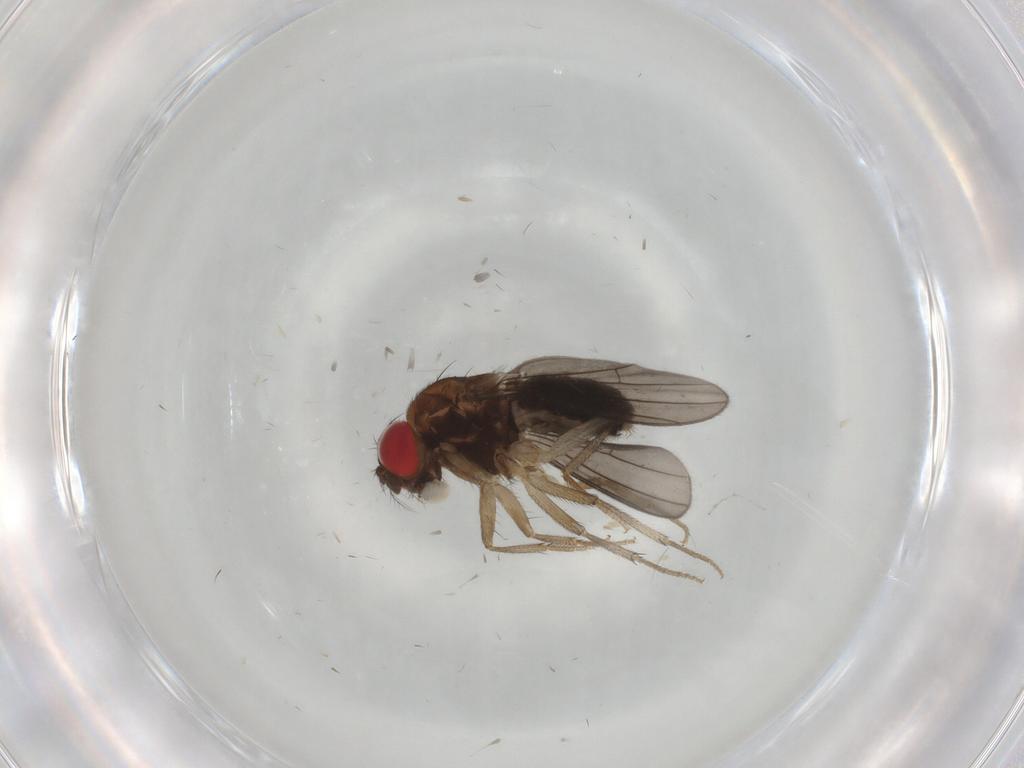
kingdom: Animalia
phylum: Arthropoda
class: Insecta
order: Diptera
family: Drosophilidae
